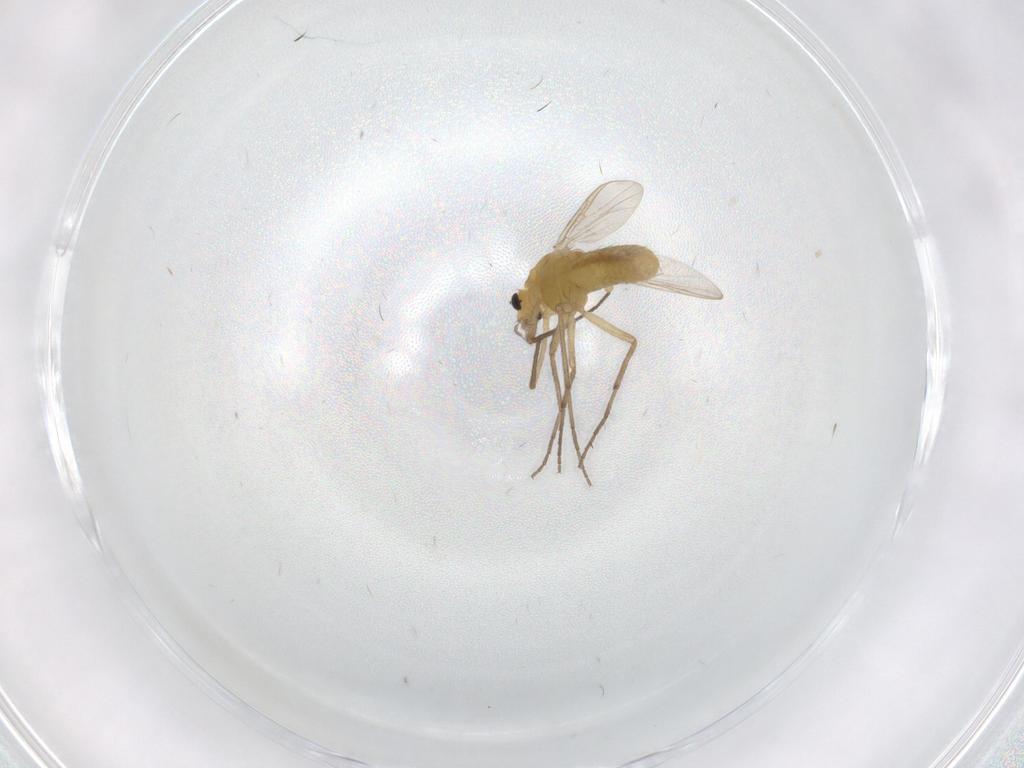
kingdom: Animalia
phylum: Arthropoda
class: Insecta
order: Diptera
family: Chironomidae
